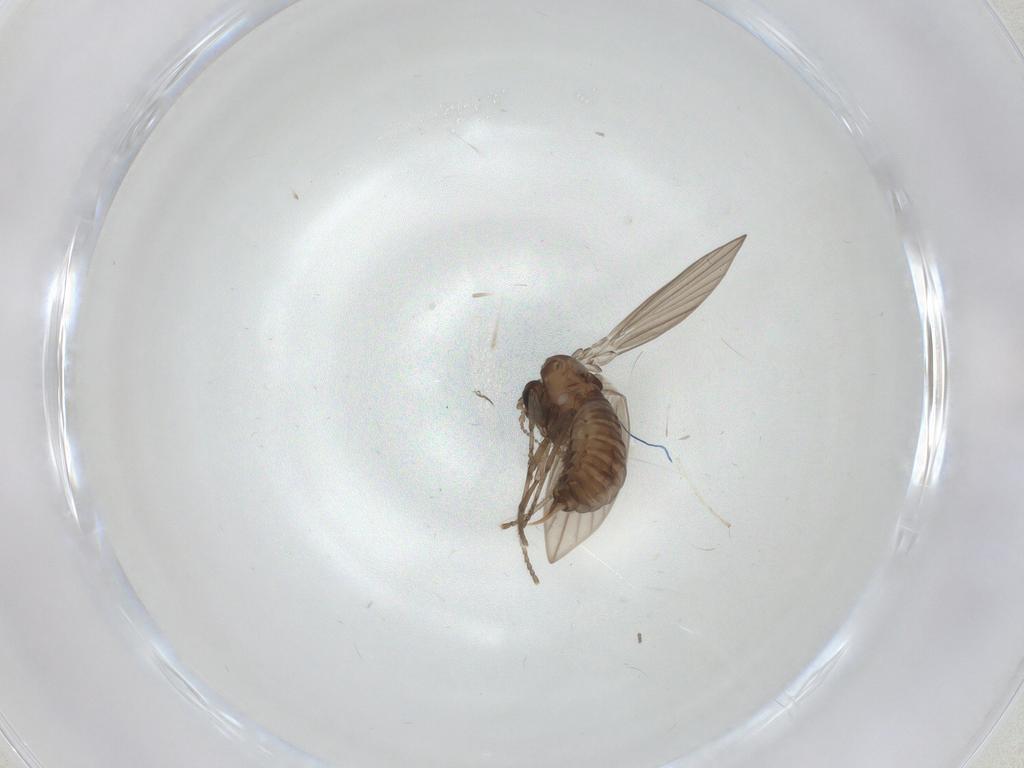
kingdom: Animalia
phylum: Arthropoda
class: Insecta
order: Diptera
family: Psychodidae
